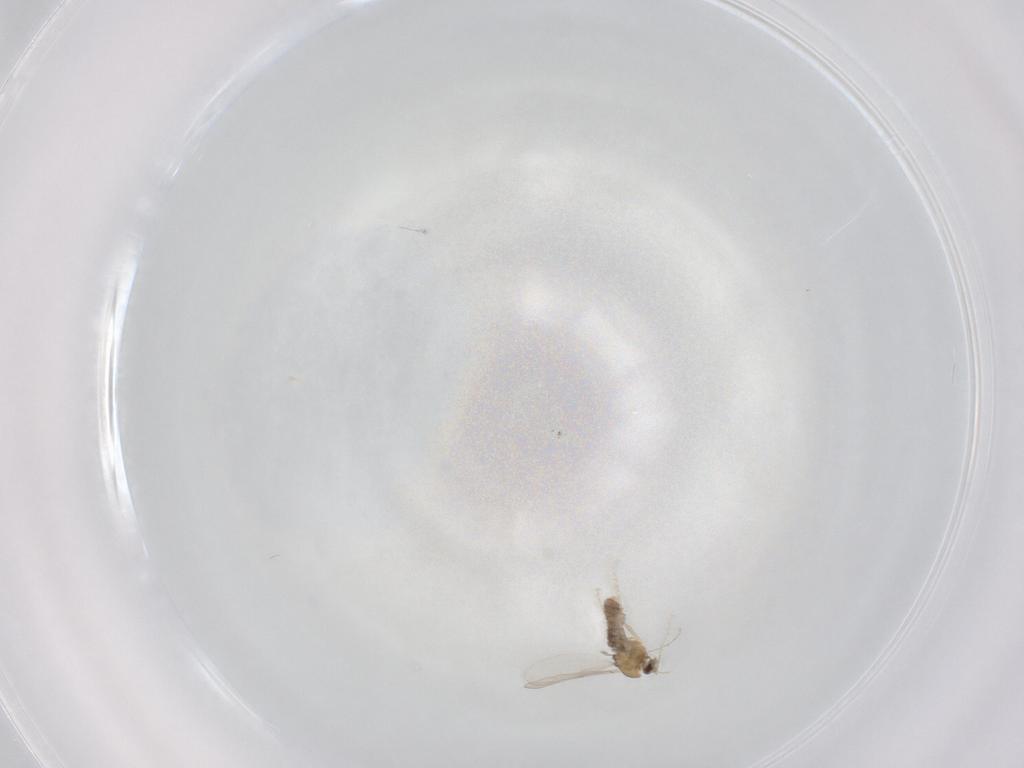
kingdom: Animalia
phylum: Arthropoda
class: Insecta
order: Diptera
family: Chironomidae
